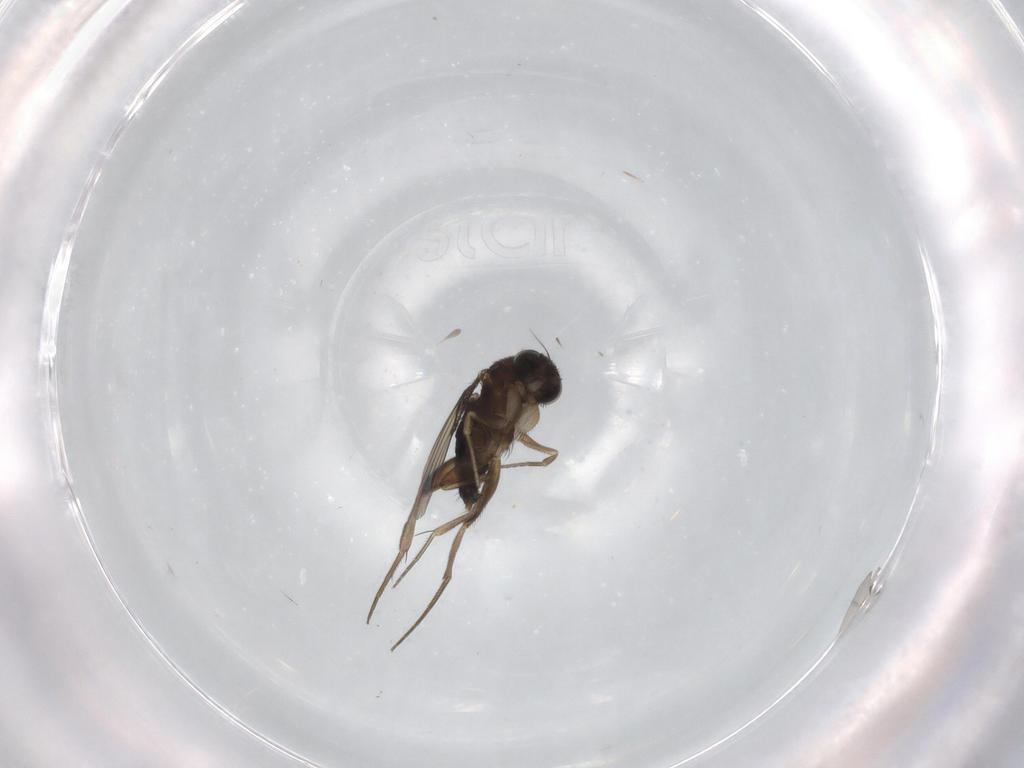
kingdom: Animalia
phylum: Arthropoda
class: Insecta
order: Diptera
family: Phoridae
